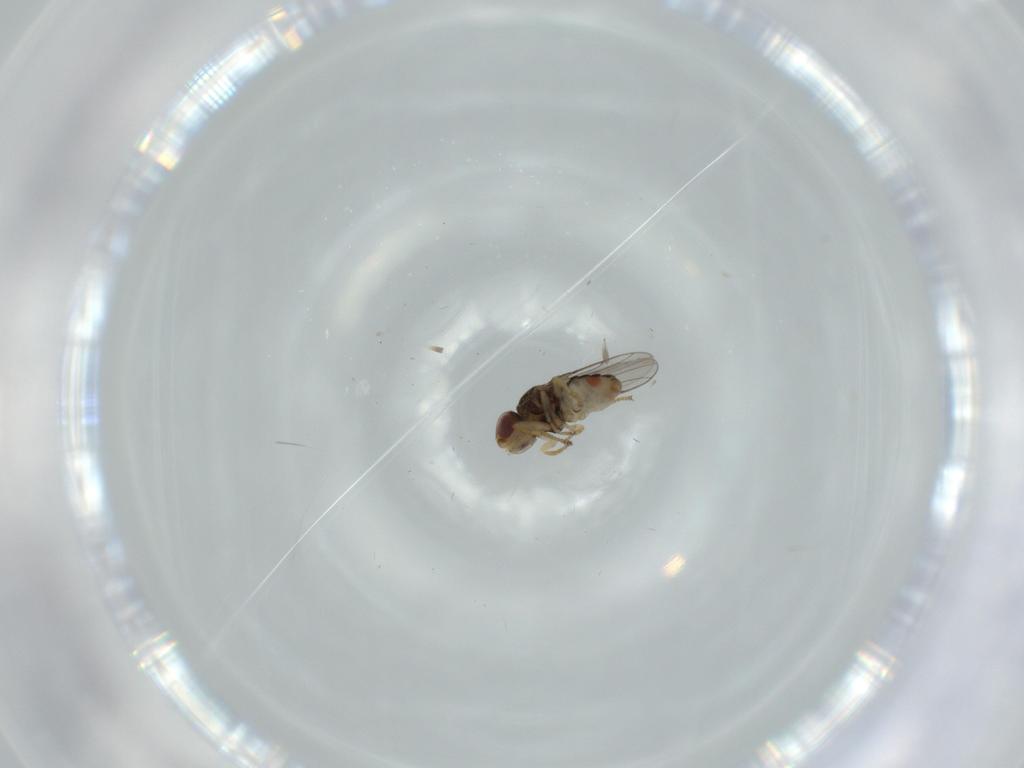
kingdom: Animalia
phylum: Arthropoda
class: Insecta
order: Diptera
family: Chloropidae
